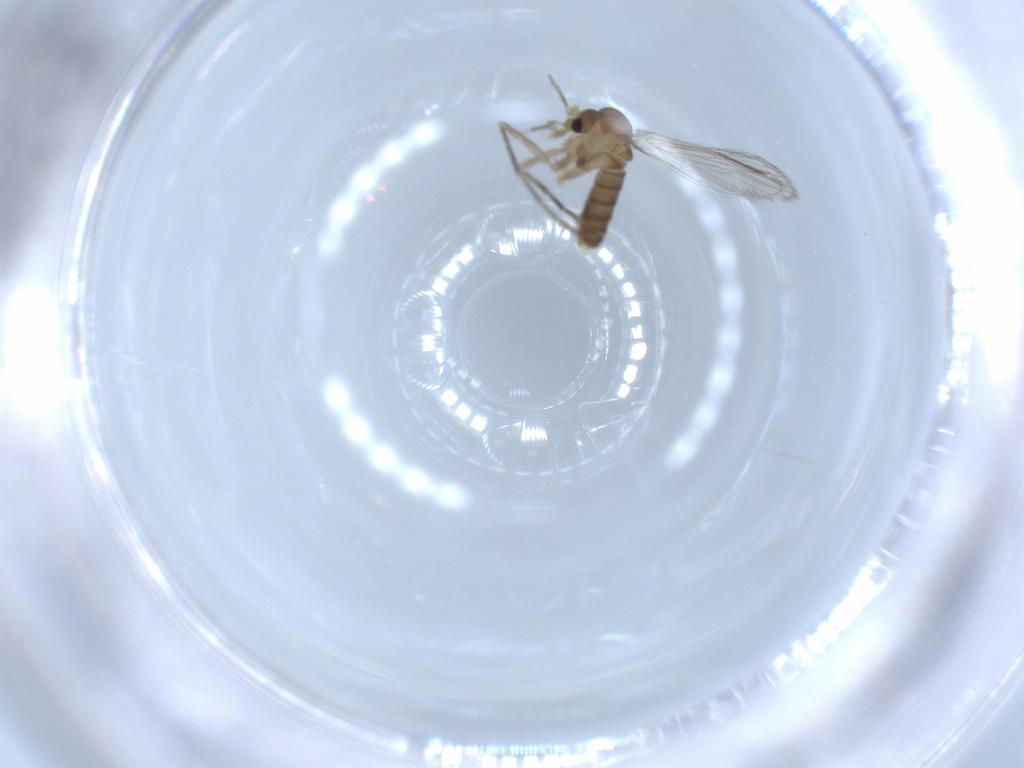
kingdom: Animalia
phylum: Arthropoda
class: Insecta
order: Diptera
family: Psychodidae
